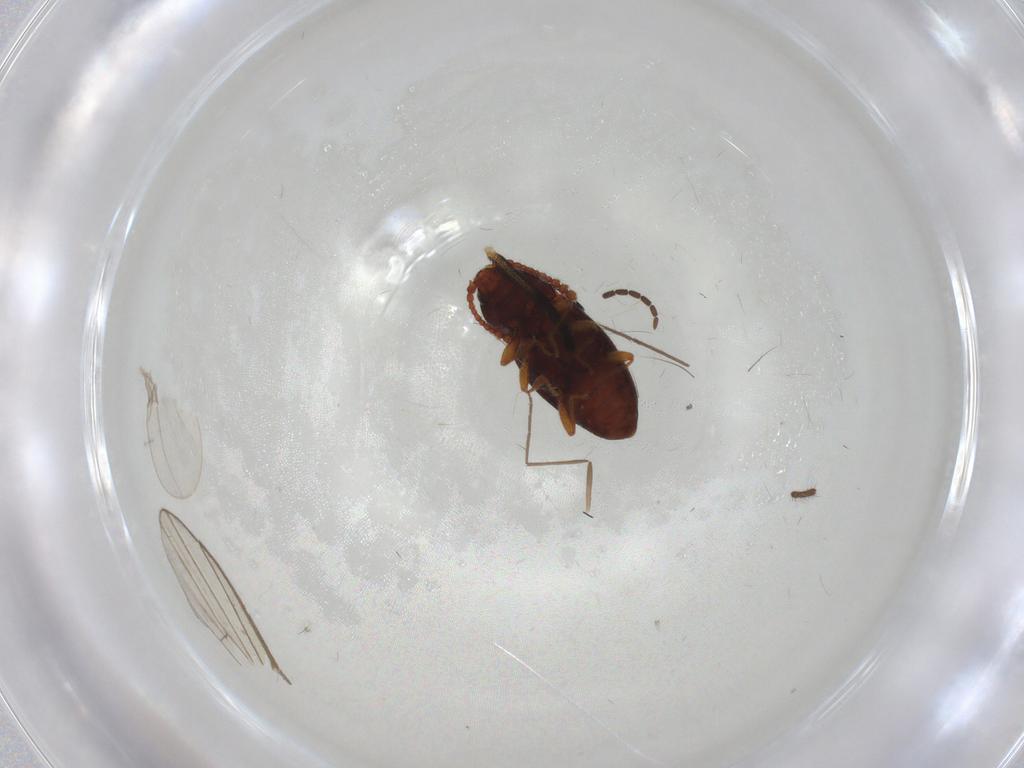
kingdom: Animalia
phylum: Arthropoda
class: Insecta
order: Coleoptera
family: Cryptophagidae
